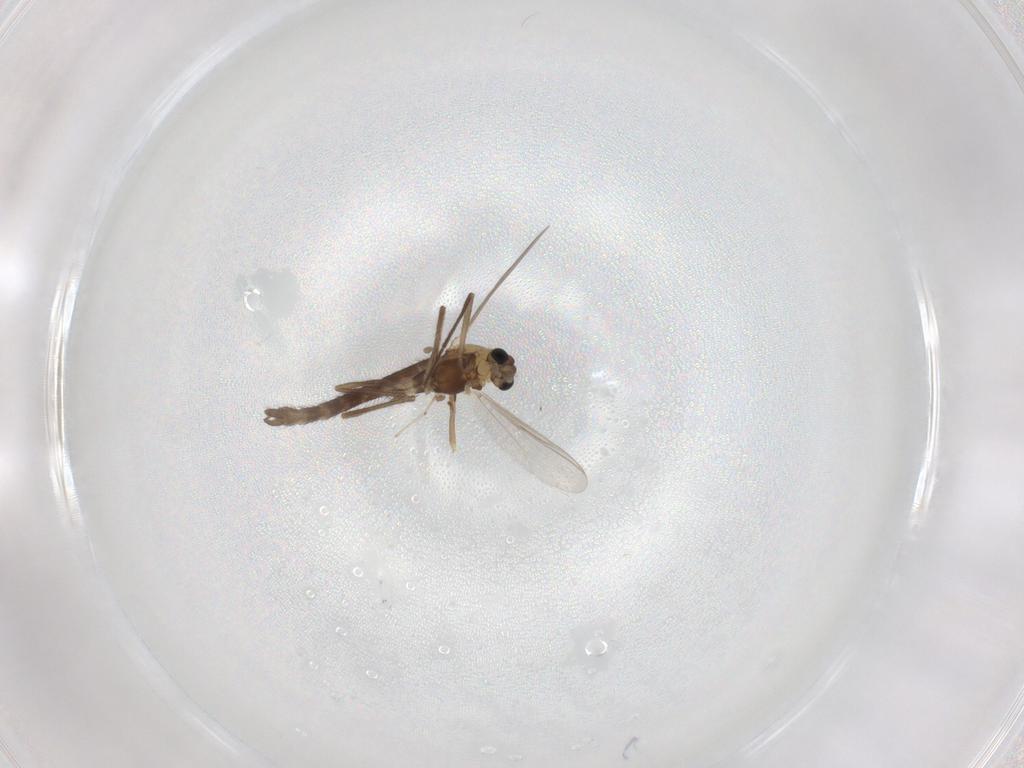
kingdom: Animalia
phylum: Arthropoda
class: Insecta
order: Diptera
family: Chironomidae
